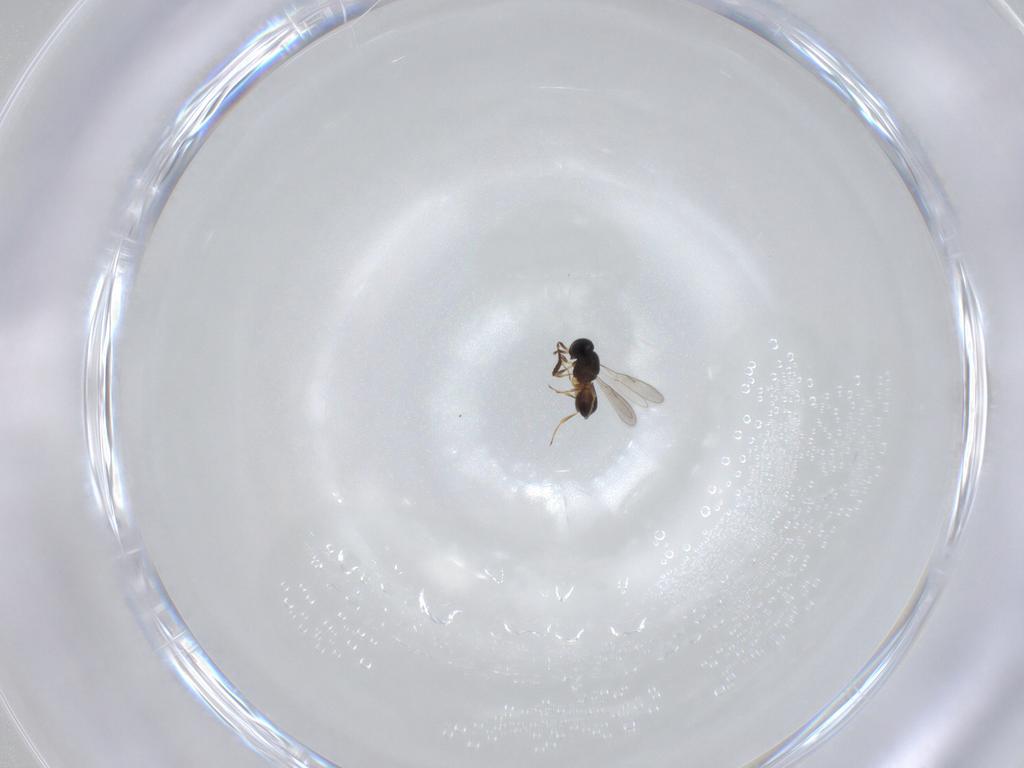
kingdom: Animalia
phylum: Arthropoda
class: Insecta
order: Hymenoptera
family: Scelionidae
